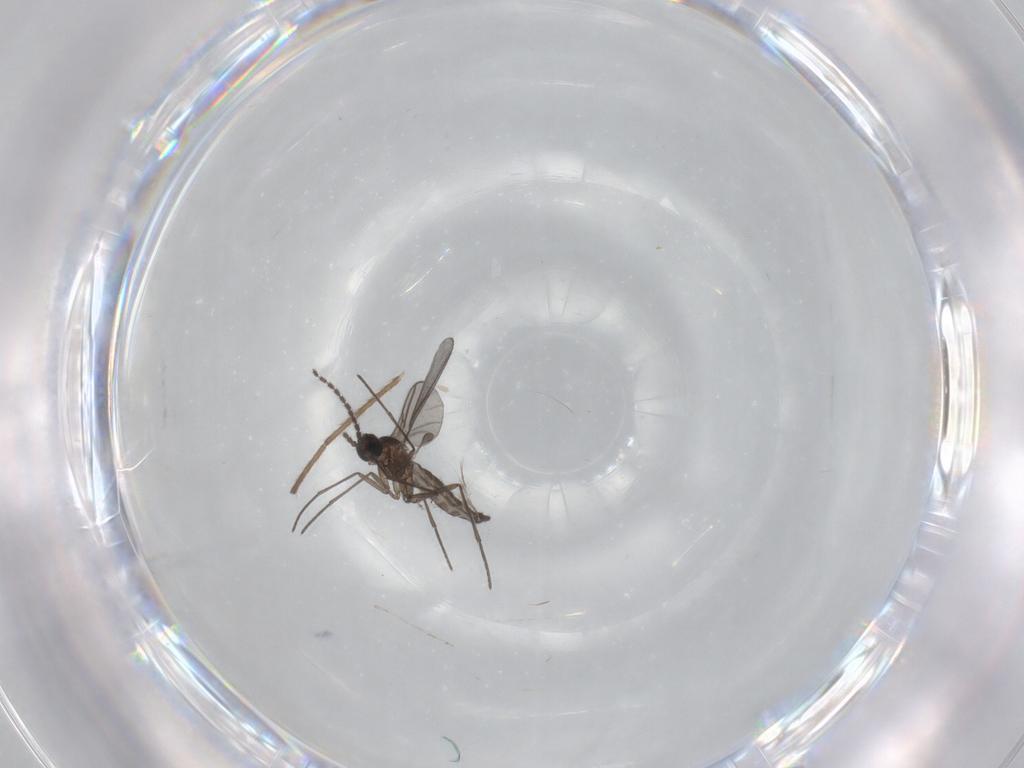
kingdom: Animalia
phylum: Arthropoda
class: Insecta
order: Diptera
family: Ditomyiidae
